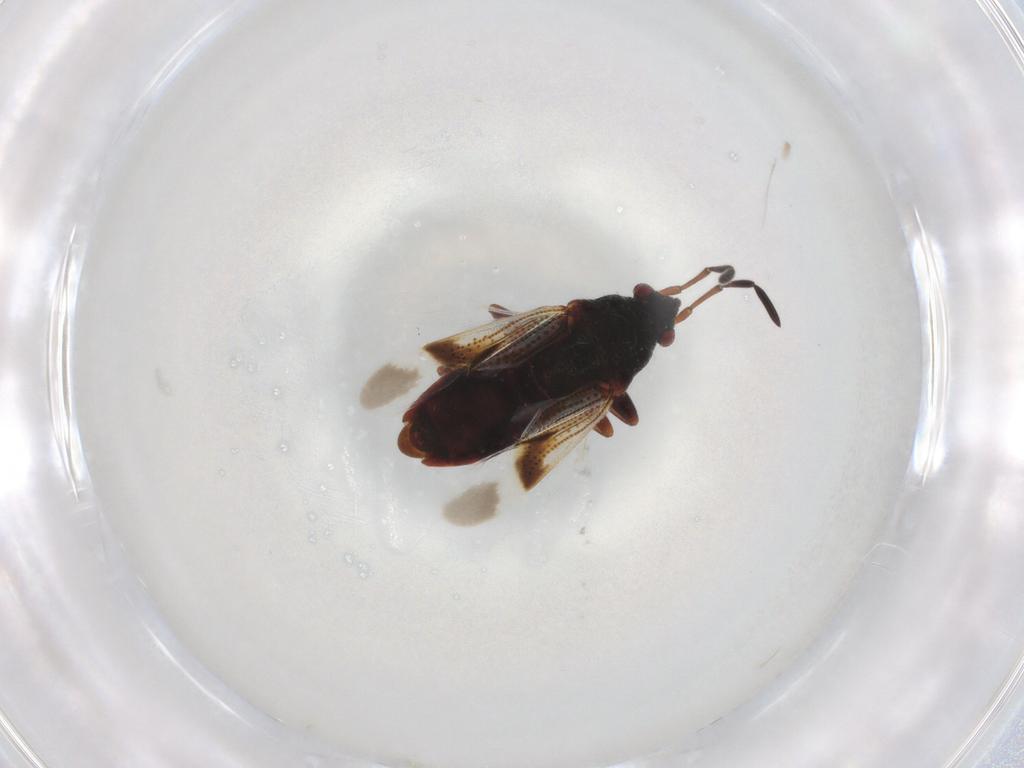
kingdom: Animalia
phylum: Arthropoda
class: Insecta
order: Hemiptera
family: Rhyparochromidae
